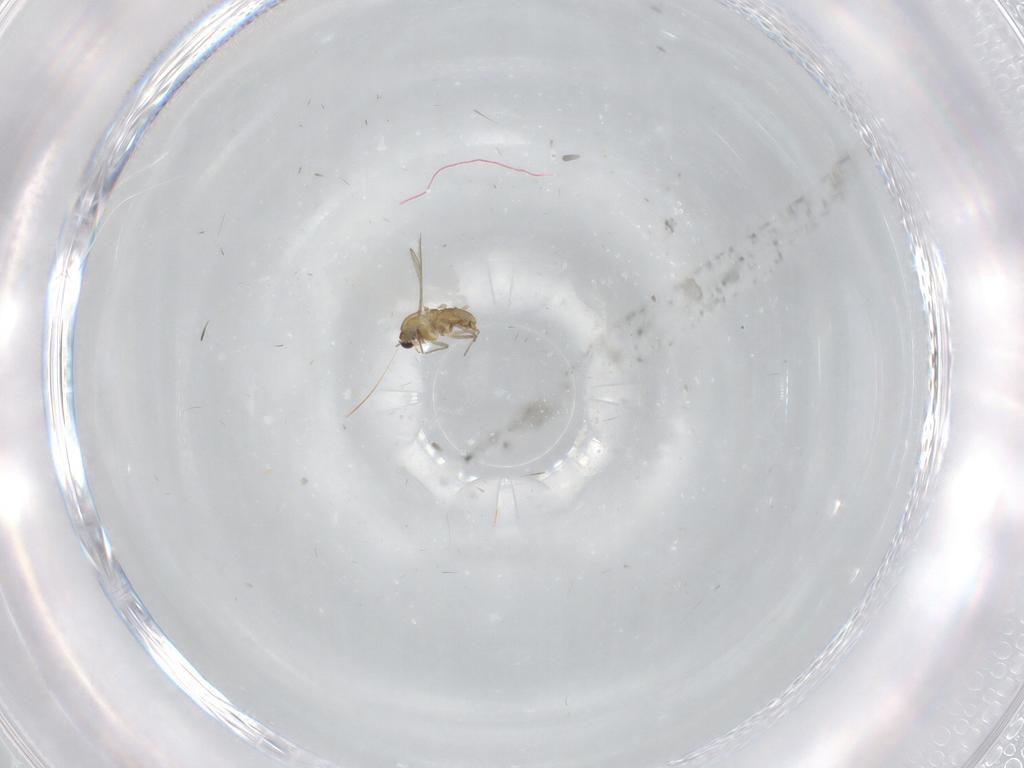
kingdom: Animalia
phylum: Arthropoda
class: Insecta
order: Diptera
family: Chironomidae
